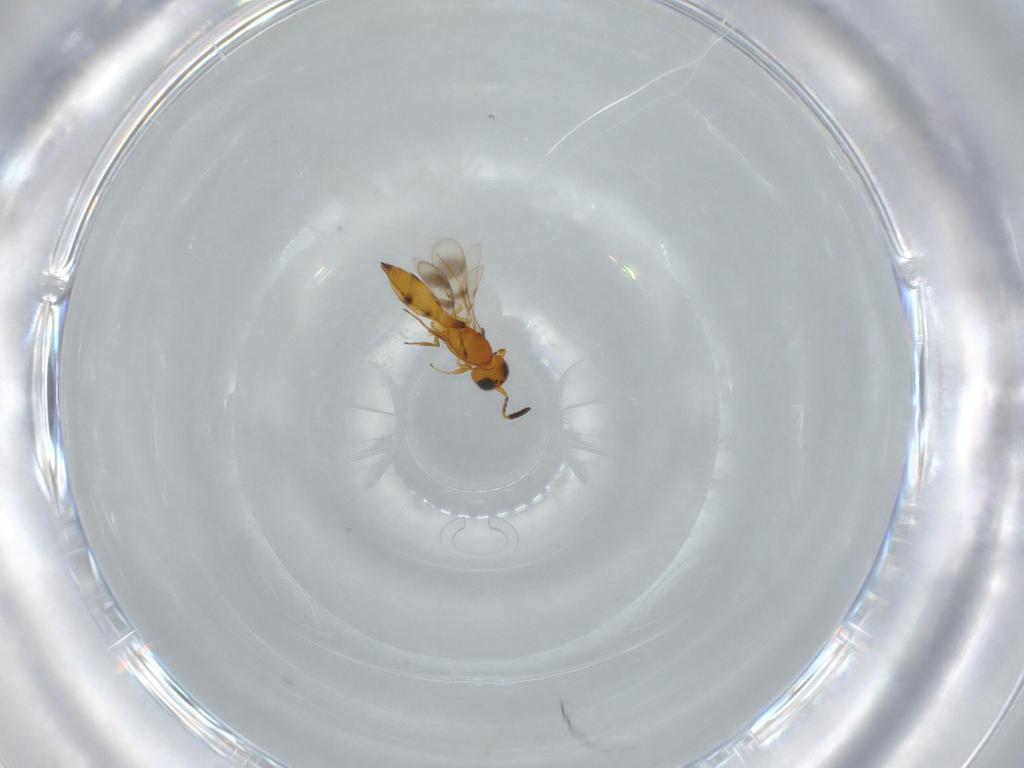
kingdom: Animalia
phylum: Arthropoda
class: Insecta
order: Hymenoptera
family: Scelionidae
